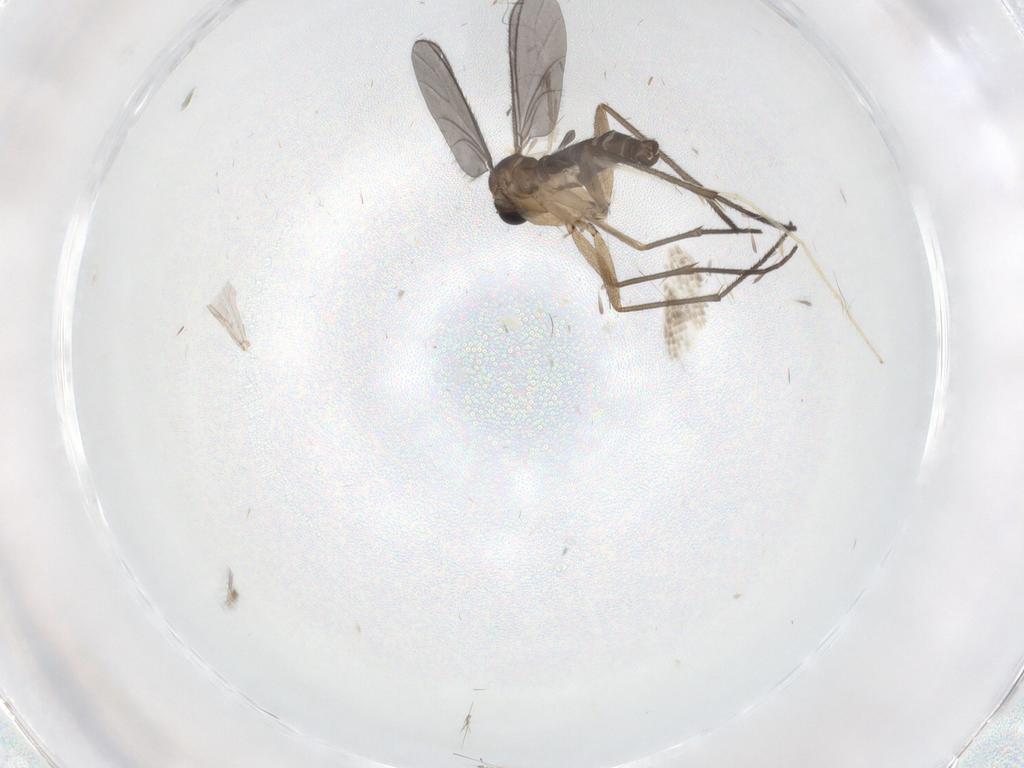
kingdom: Animalia
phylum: Arthropoda
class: Insecta
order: Diptera
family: Sciaridae
